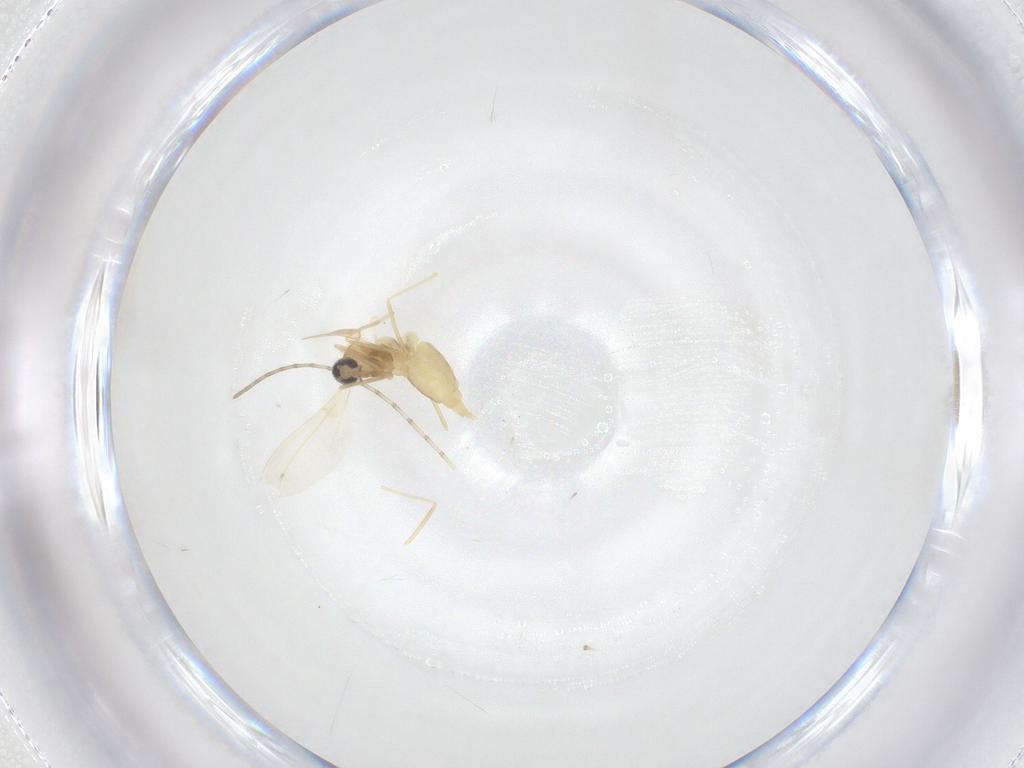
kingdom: Animalia
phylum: Arthropoda
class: Insecta
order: Diptera
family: Cecidomyiidae
